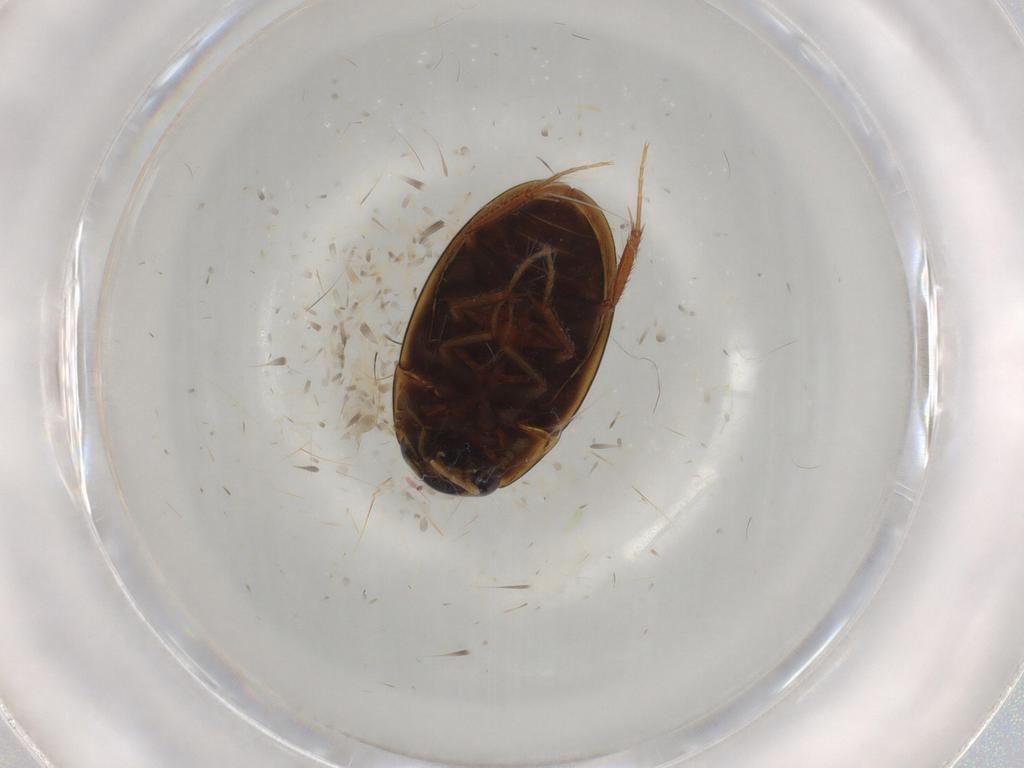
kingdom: Animalia
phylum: Arthropoda
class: Insecta
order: Coleoptera
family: Hydrophilidae
